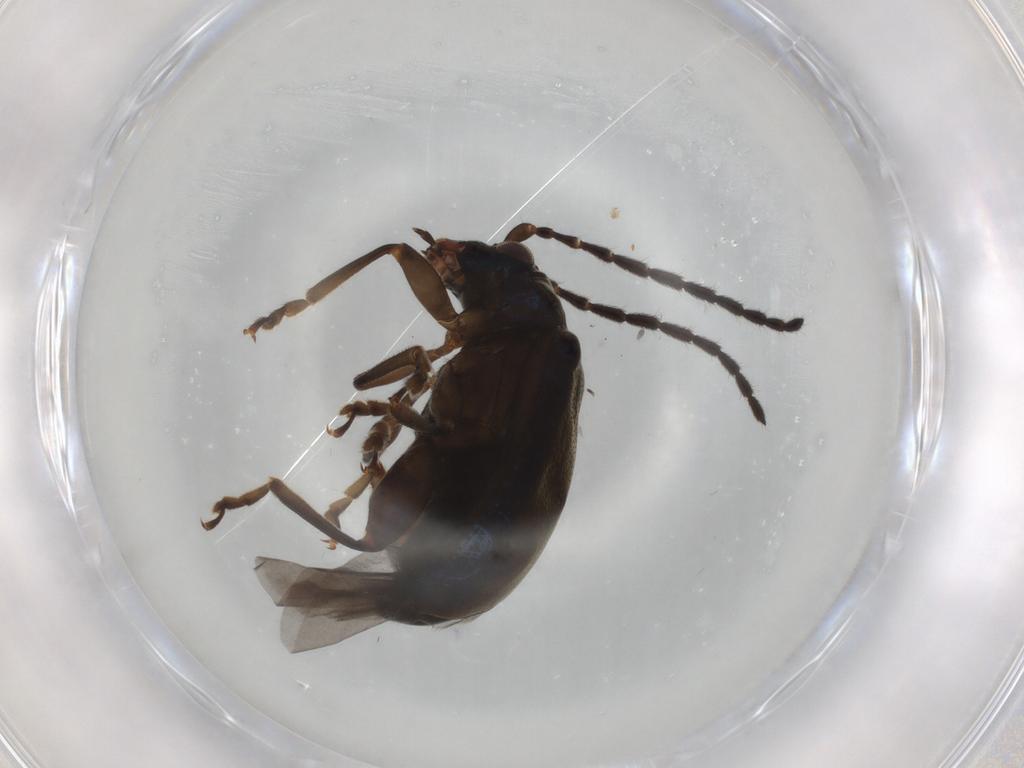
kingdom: Animalia
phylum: Arthropoda
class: Insecta
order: Coleoptera
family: Chrysomelidae
